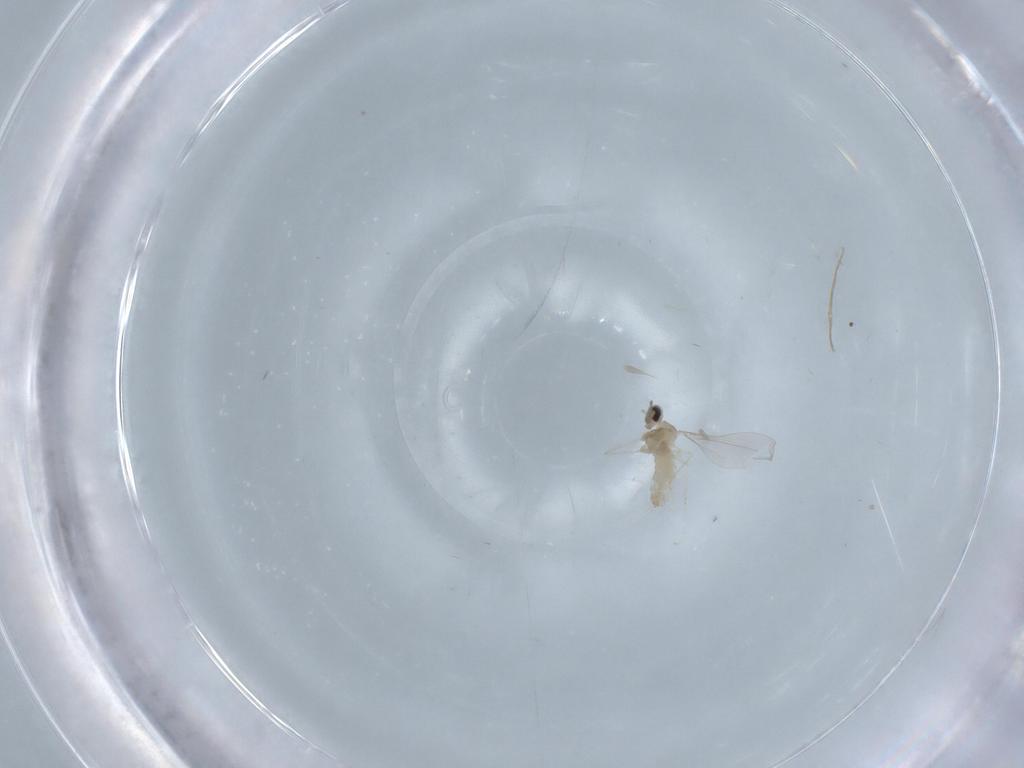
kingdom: Animalia
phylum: Arthropoda
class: Insecta
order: Diptera
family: Cecidomyiidae
